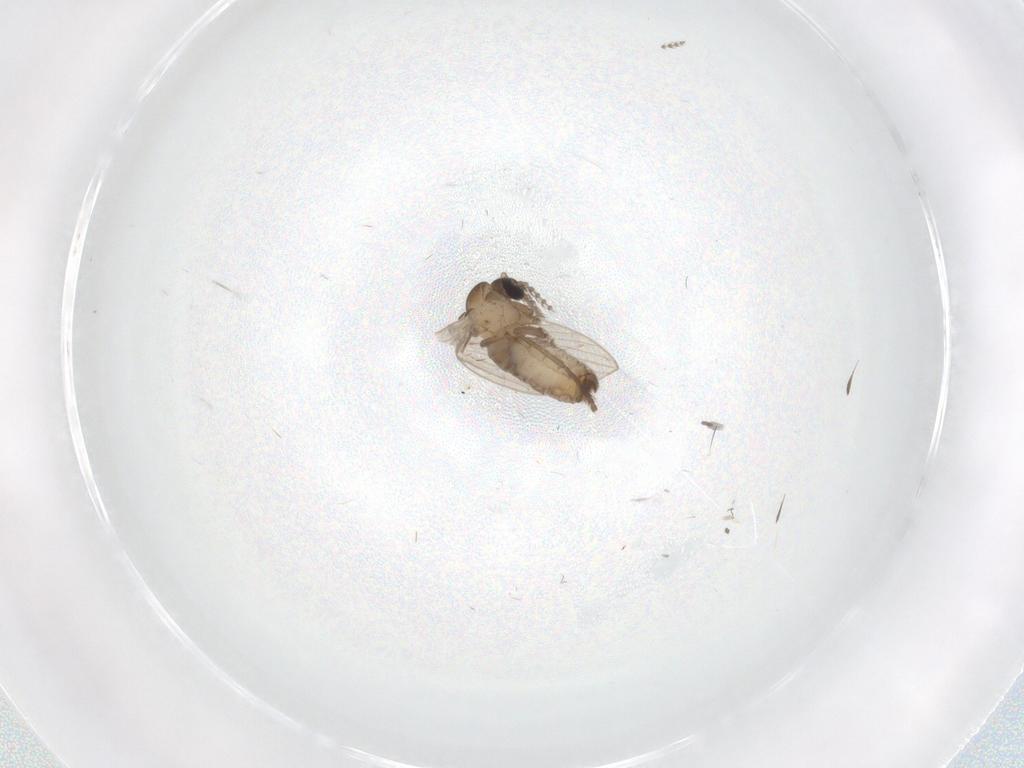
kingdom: Animalia
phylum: Arthropoda
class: Insecta
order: Diptera
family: Psychodidae
